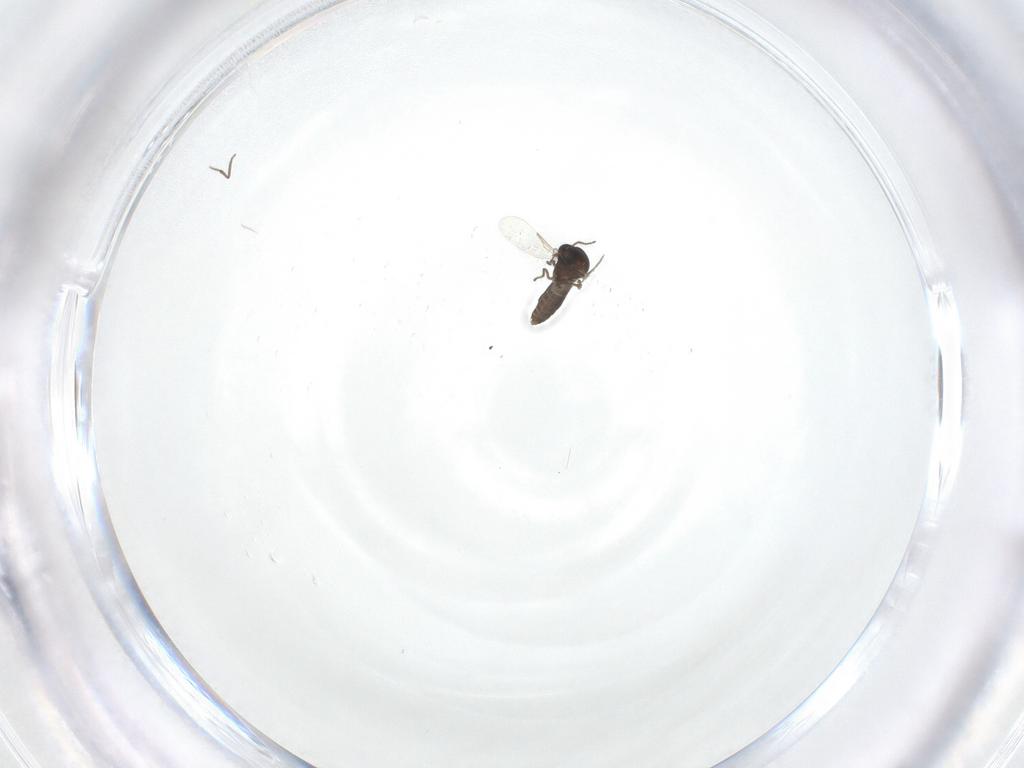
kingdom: Animalia
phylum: Arthropoda
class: Insecta
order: Diptera
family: Ceratopogonidae
